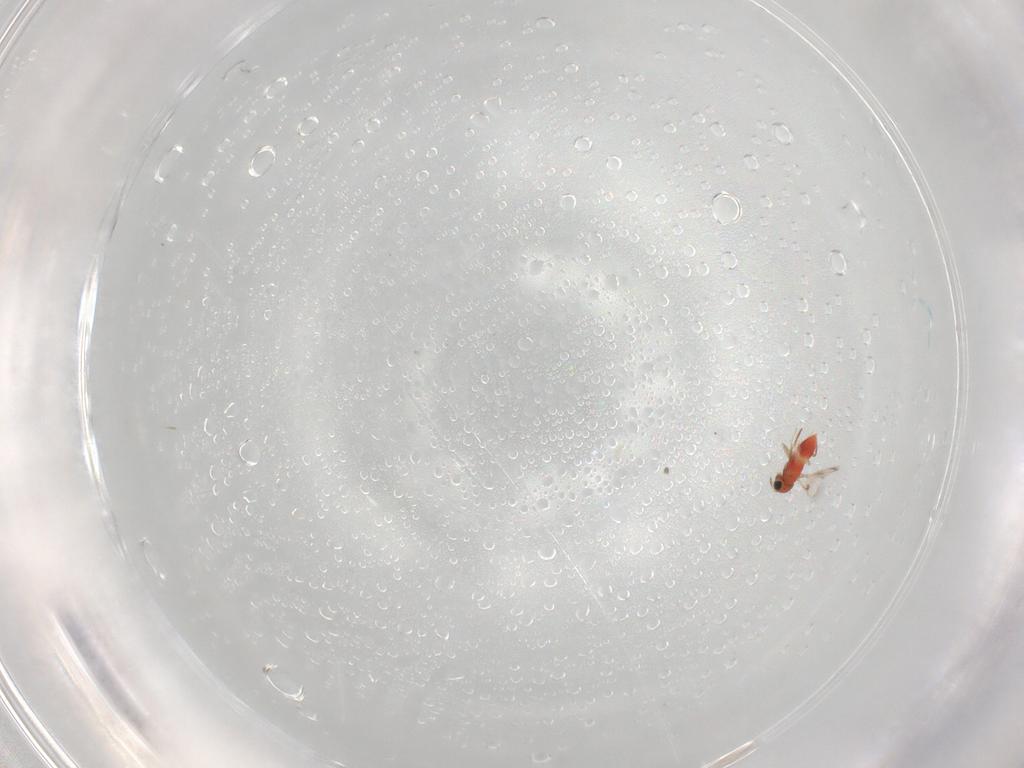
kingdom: Animalia
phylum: Arthropoda
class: Insecta
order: Hymenoptera
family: Trichogrammatidae
